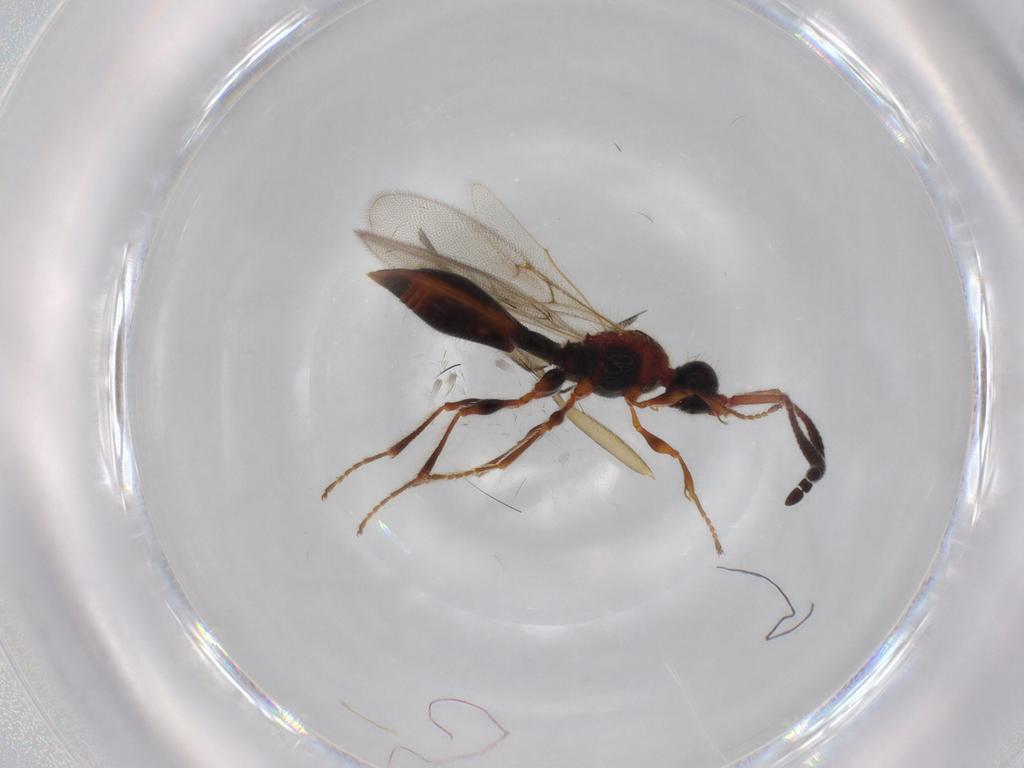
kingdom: Animalia
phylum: Arthropoda
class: Insecta
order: Diptera
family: Mycetophilidae
